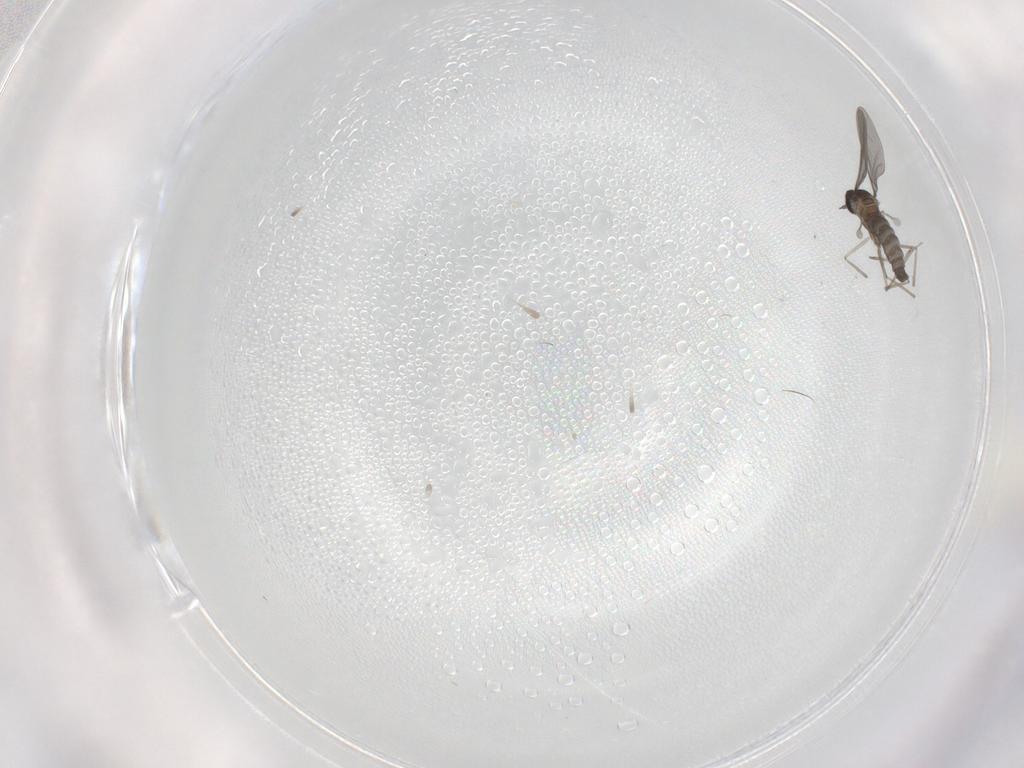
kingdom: Animalia
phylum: Arthropoda
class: Insecta
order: Diptera
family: Cecidomyiidae
